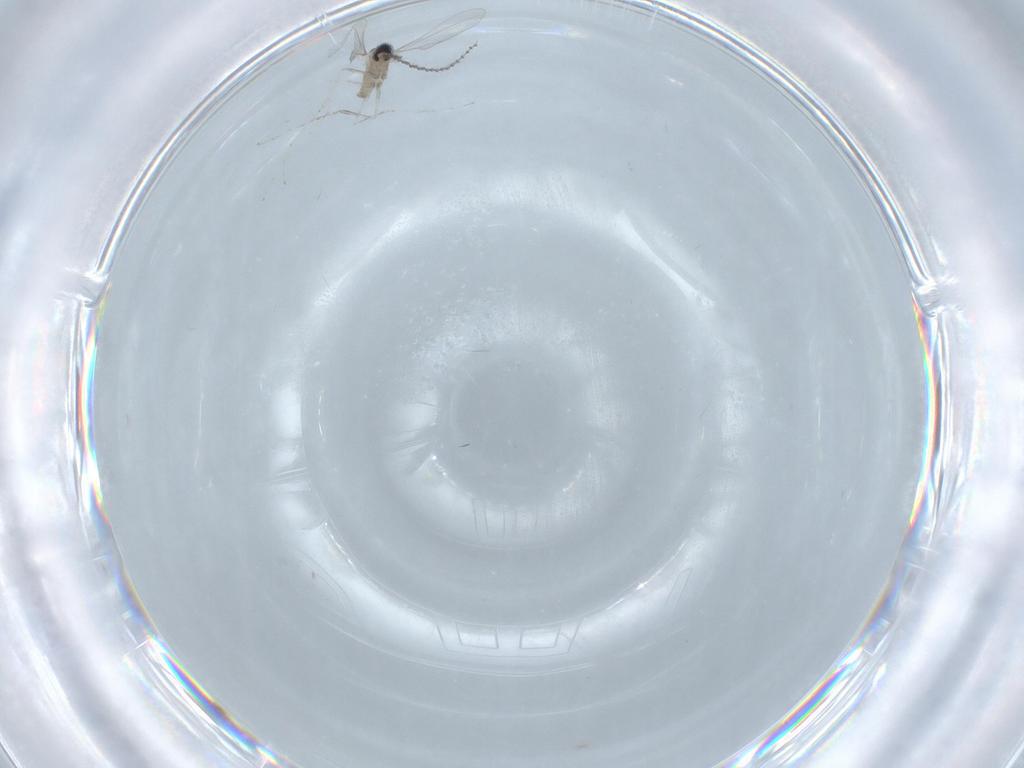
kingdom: Animalia
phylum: Arthropoda
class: Insecta
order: Diptera
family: Cecidomyiidae
